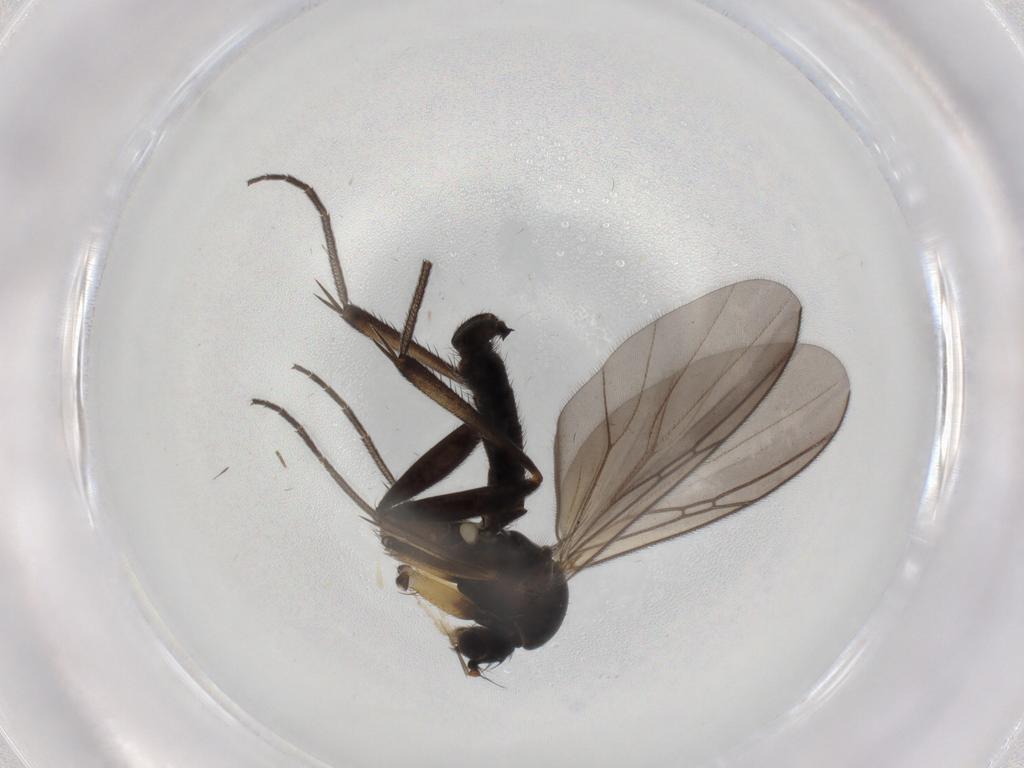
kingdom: Animalia
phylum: Arthropoda
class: Insecta
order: Diptera
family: Mycetophilidae
